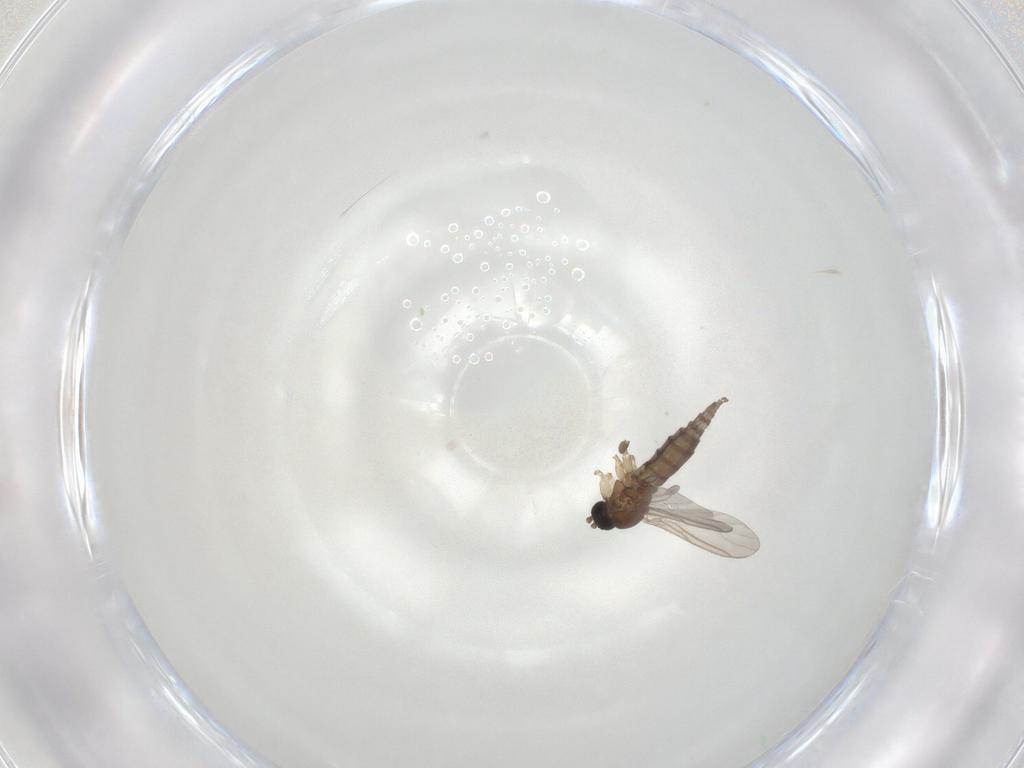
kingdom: Animalia
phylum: Arthropoda
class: Insecta
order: Diptera
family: Sciaridae
